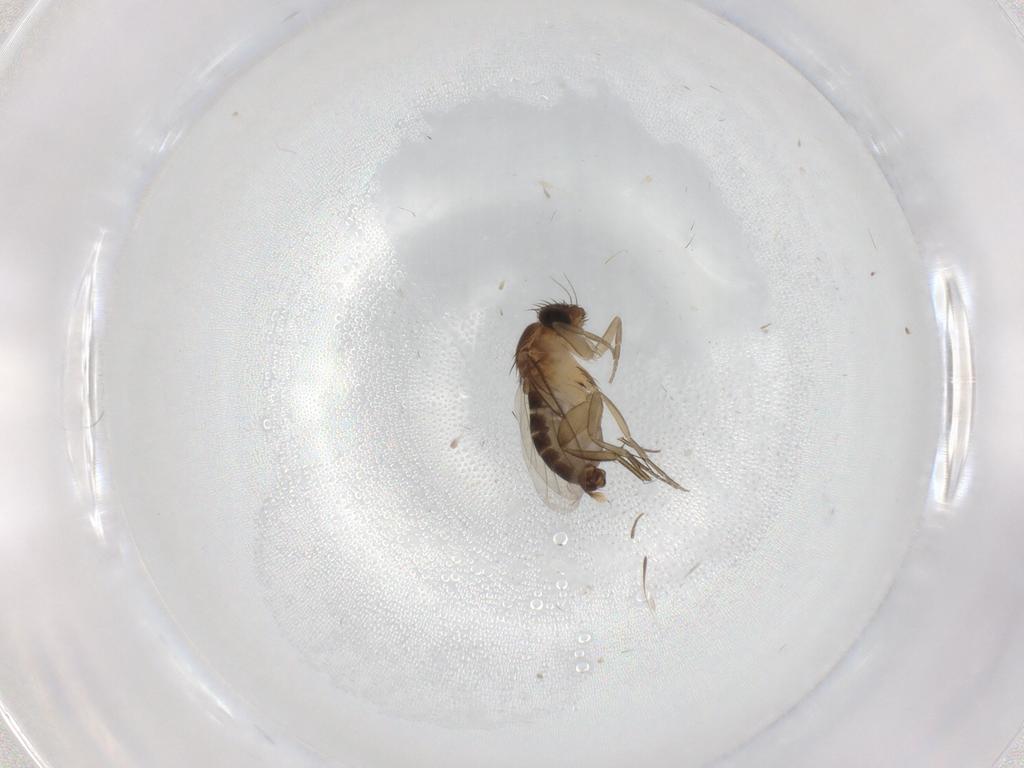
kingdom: Animalia
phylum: Arthropoda
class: Insecta
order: Diptera
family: Phoridae
